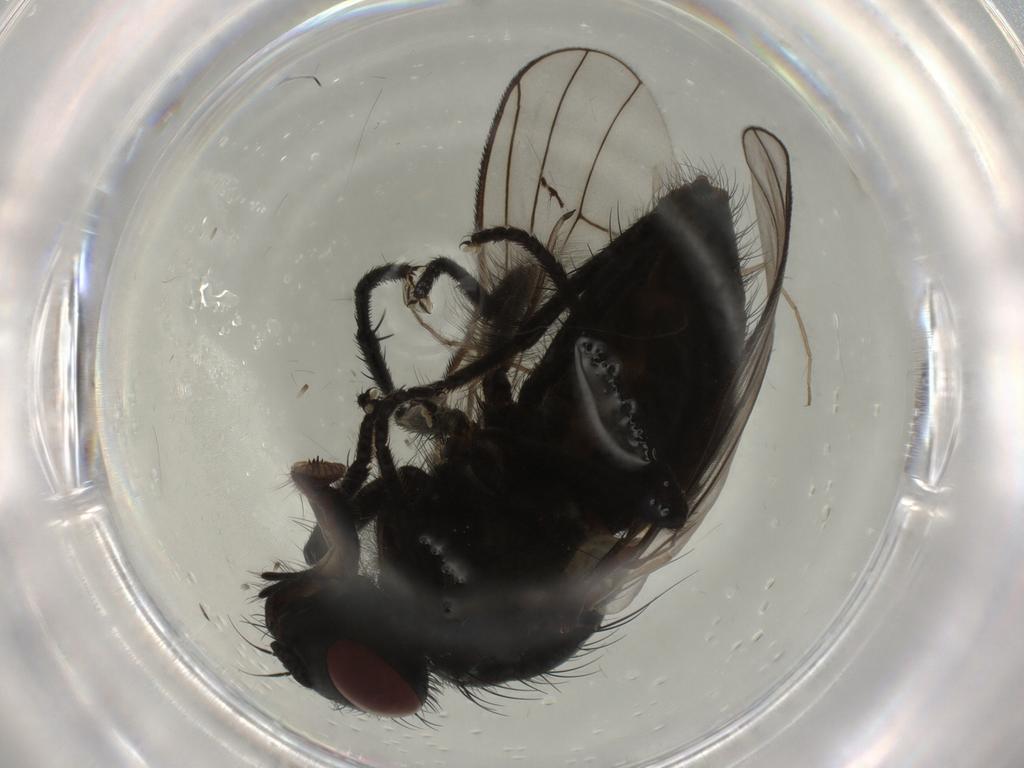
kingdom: Animalia
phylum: Arthropoda
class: Insecta
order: Diptera
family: Muscidae
